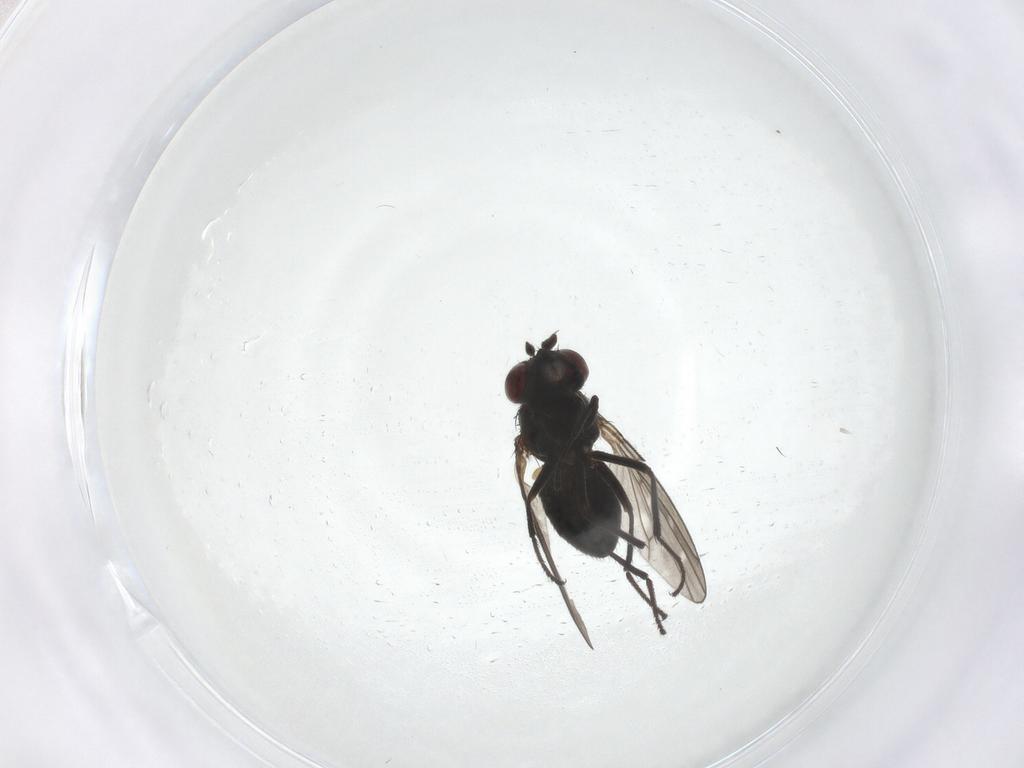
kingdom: Animalia
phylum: Arthropoda
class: Insecta
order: Diptera
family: Ephydridae
